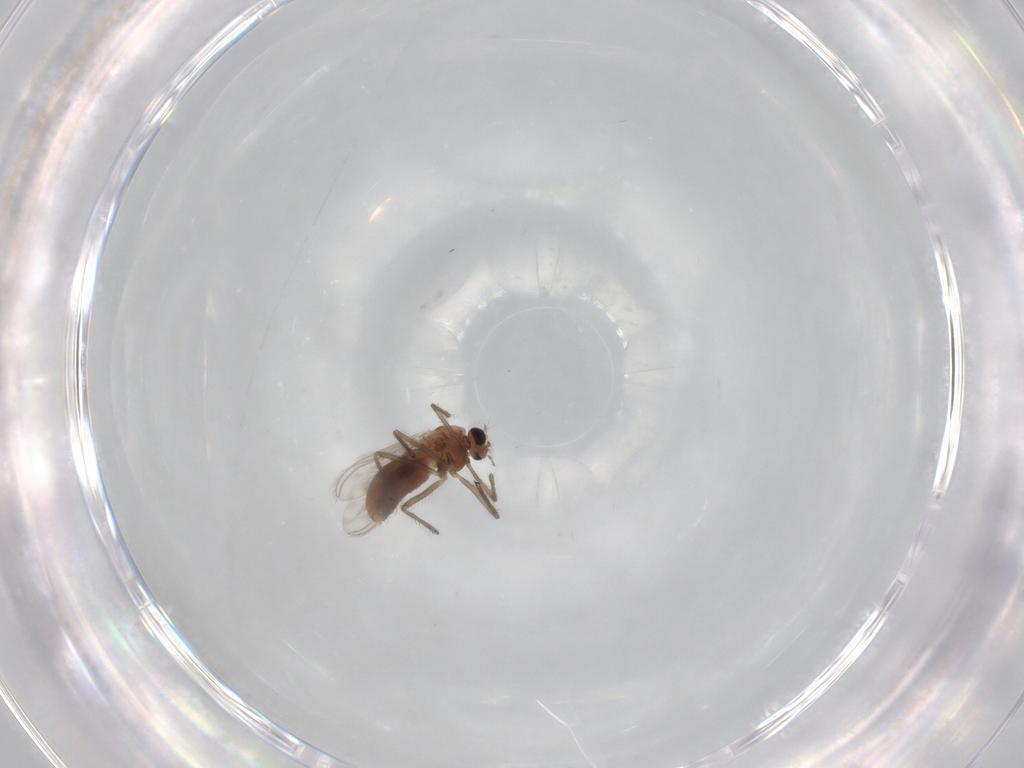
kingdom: Animalia
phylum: Arthropoda
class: Insecta
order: Diptera
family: Chironomidae
